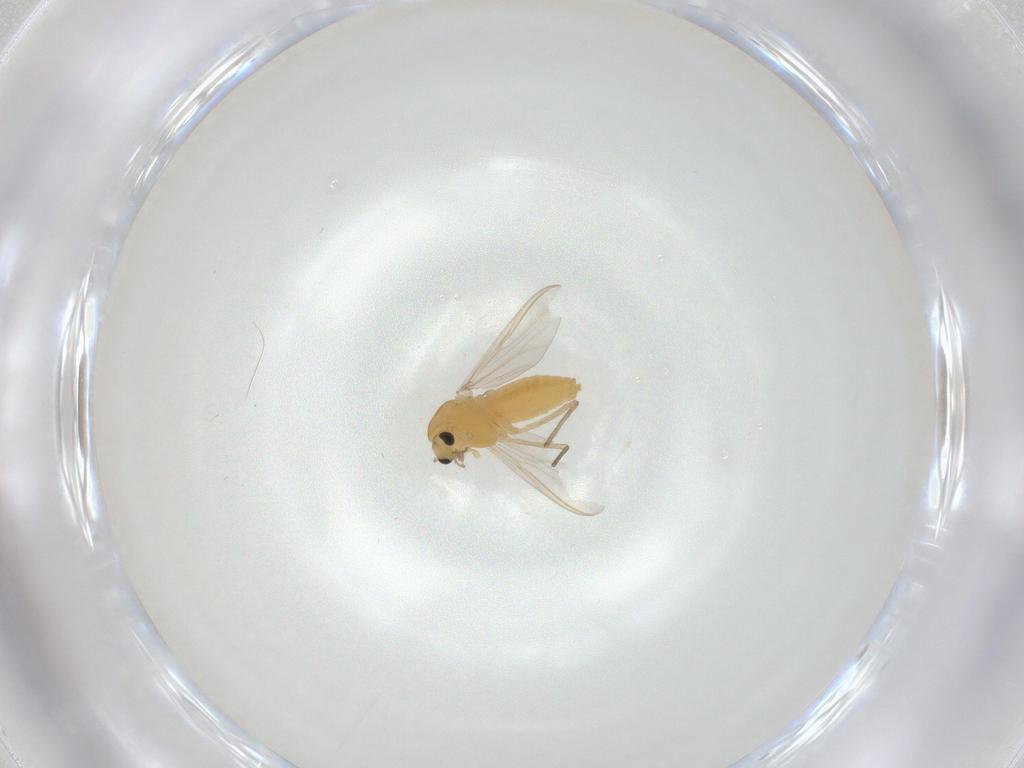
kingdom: Animalia
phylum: Arthropoda
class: Insecta
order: Diptera
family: Chironomidae
